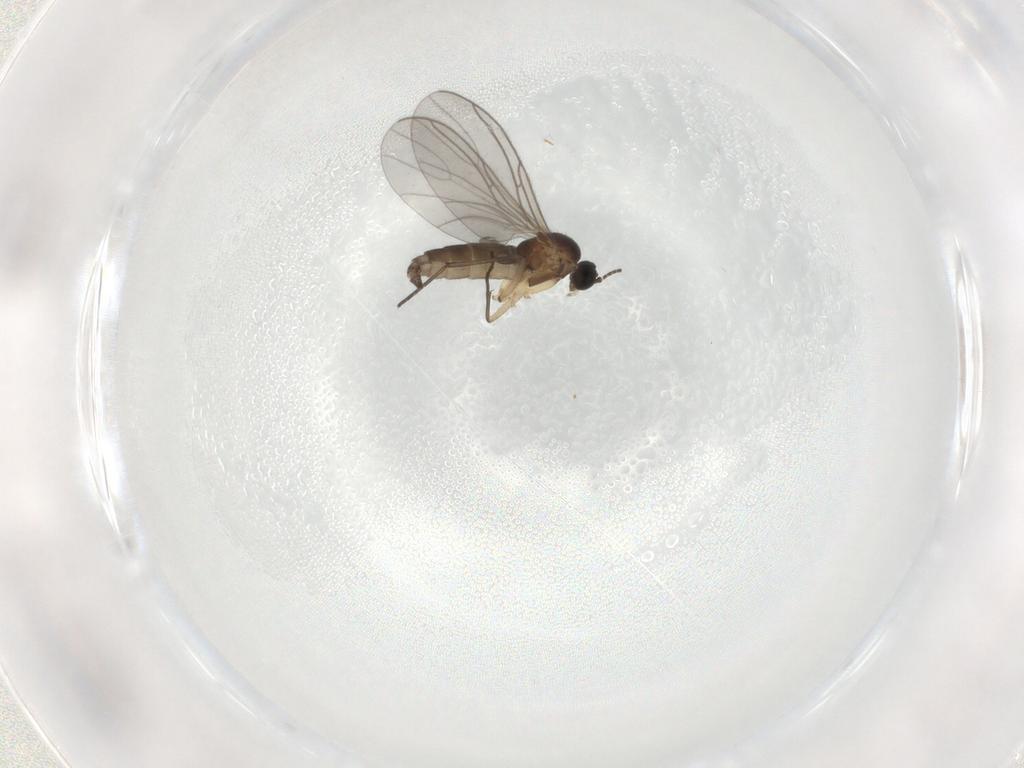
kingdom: Animalia
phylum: Arthropoda
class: Insecta
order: Diptera
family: Sciaridae
